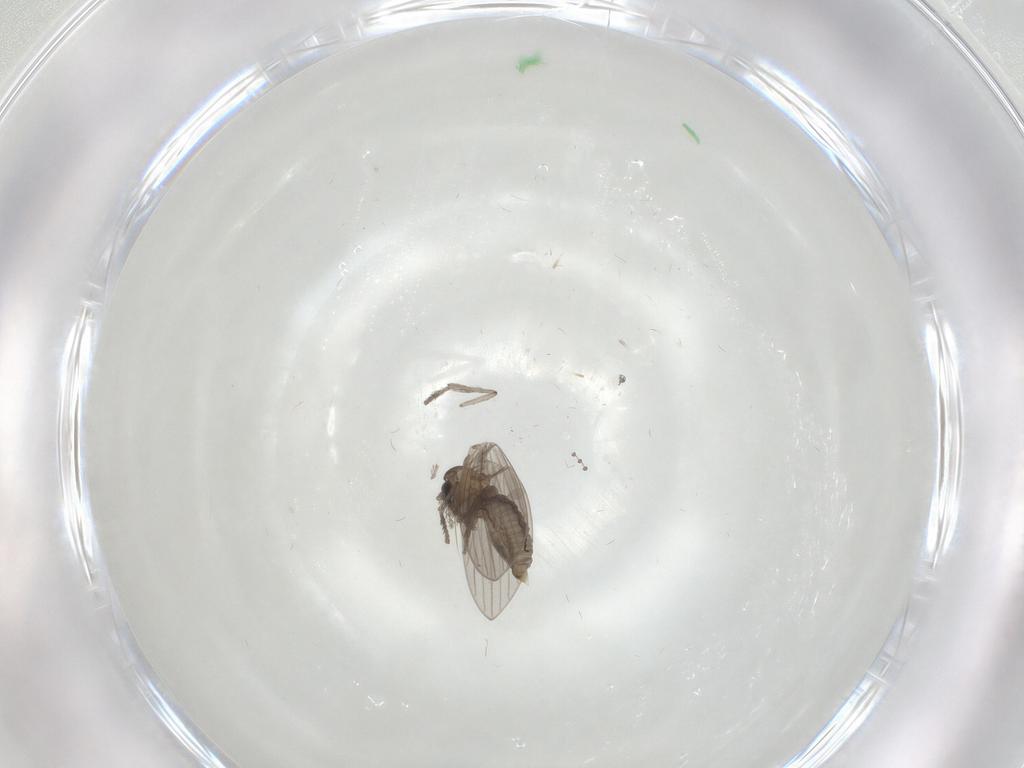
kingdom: Animalia
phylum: Arthropoda
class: Insecta
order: Diptera
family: Psychodidae
